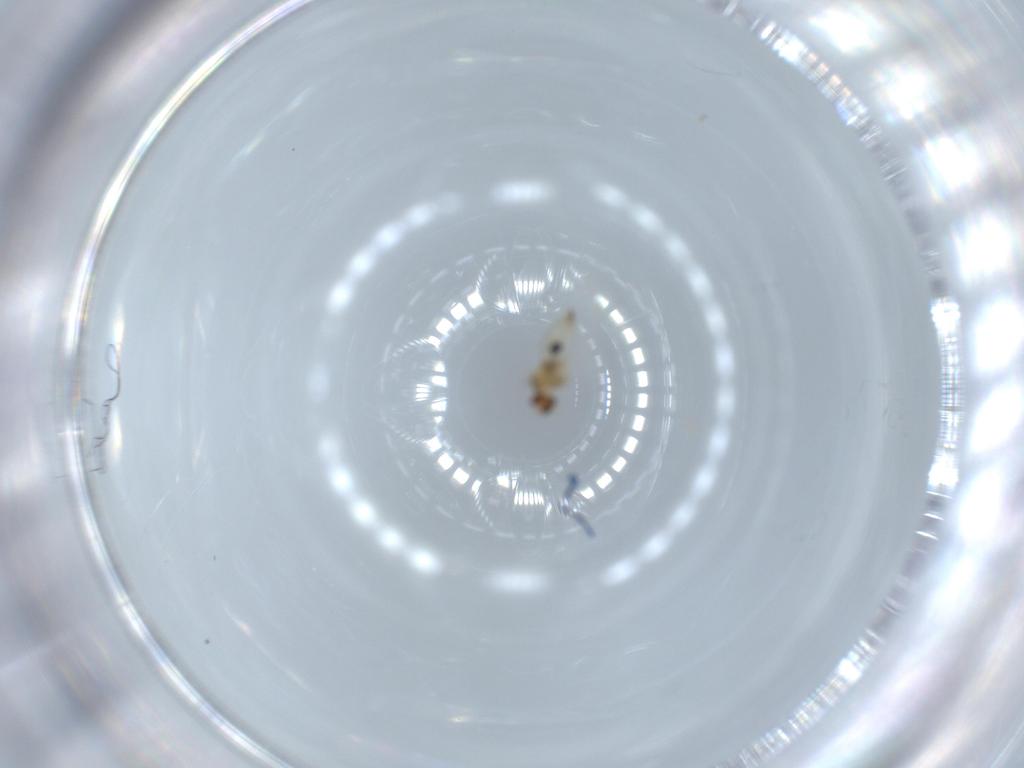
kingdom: Animalia
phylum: Arthropoda
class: Insecta
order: Diptera
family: Cecidomyiidae
